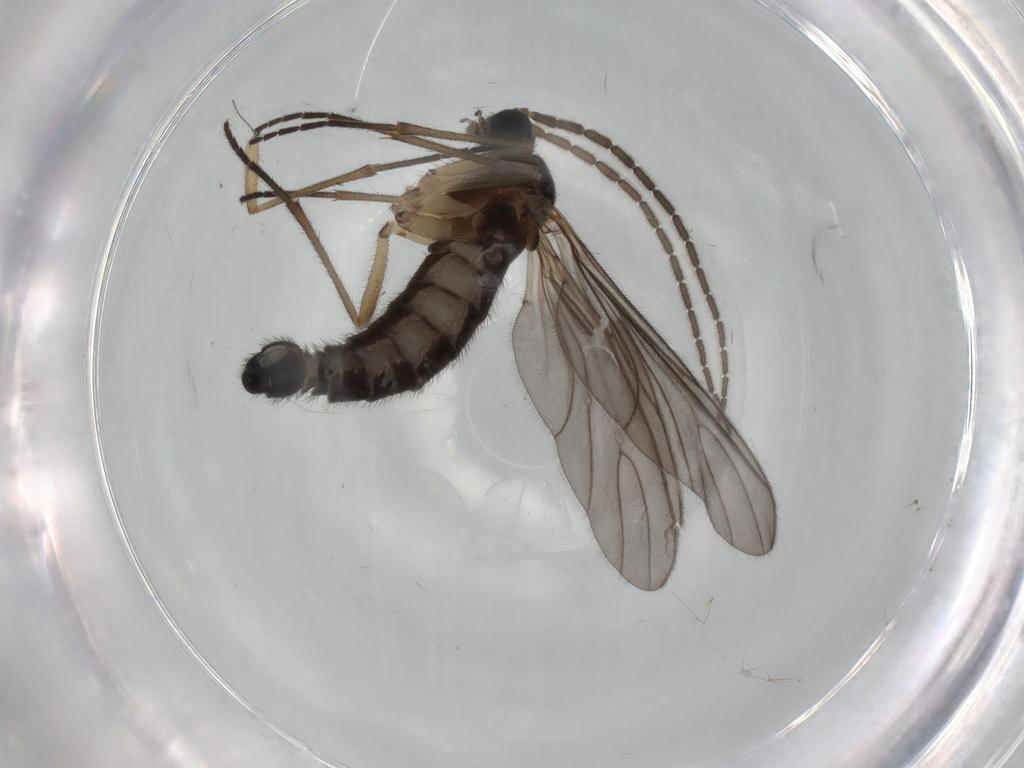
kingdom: Animalia
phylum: Arthropoda
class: Insecta
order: Diptera
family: Sciaridae
